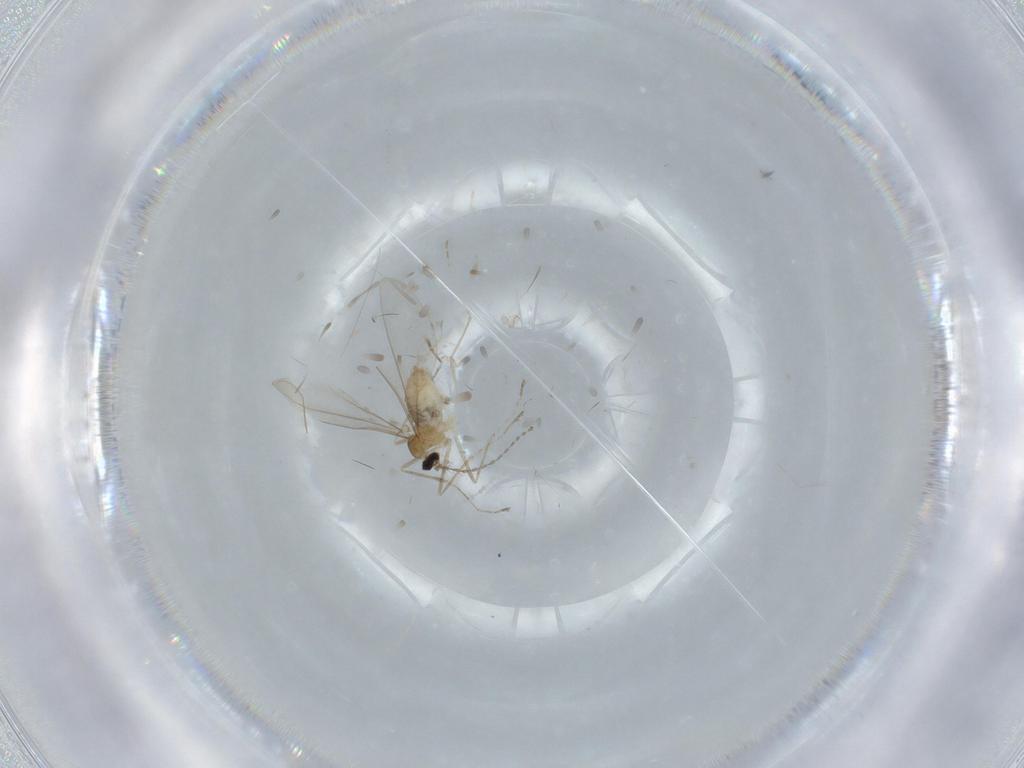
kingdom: Animalia
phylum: Arthropoda
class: Insecta
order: Diptera
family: Cecidomyiidae
